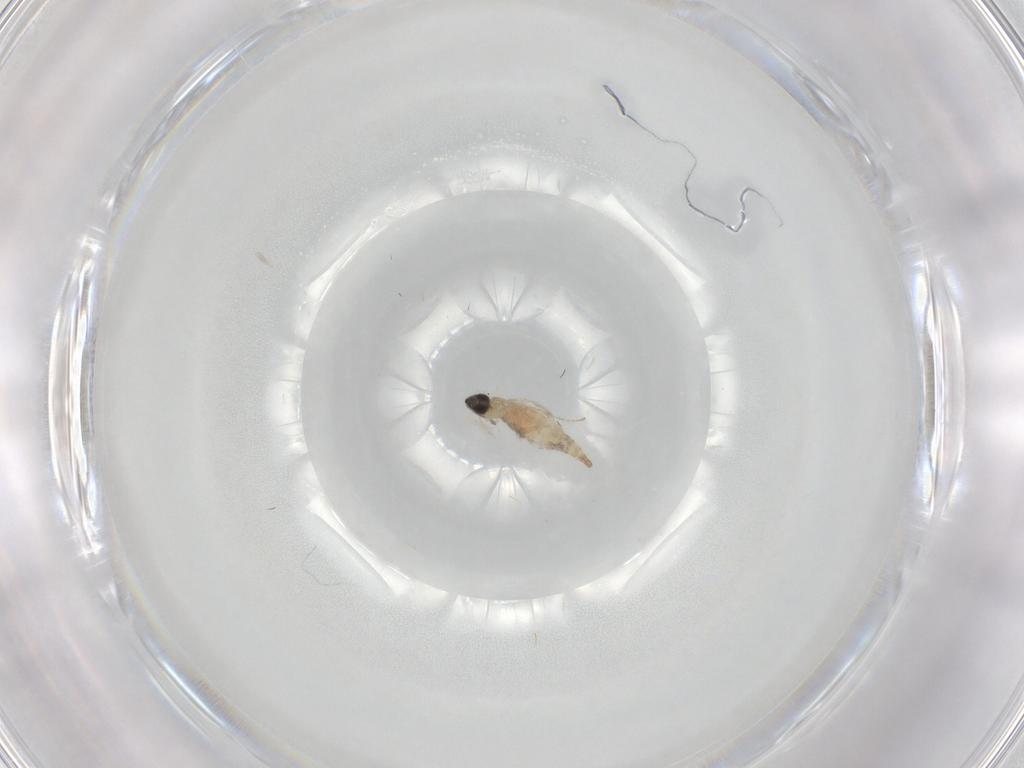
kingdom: Animalia
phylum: Arthropoda
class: Insecta
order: Diptera
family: Cecidomyiidae
